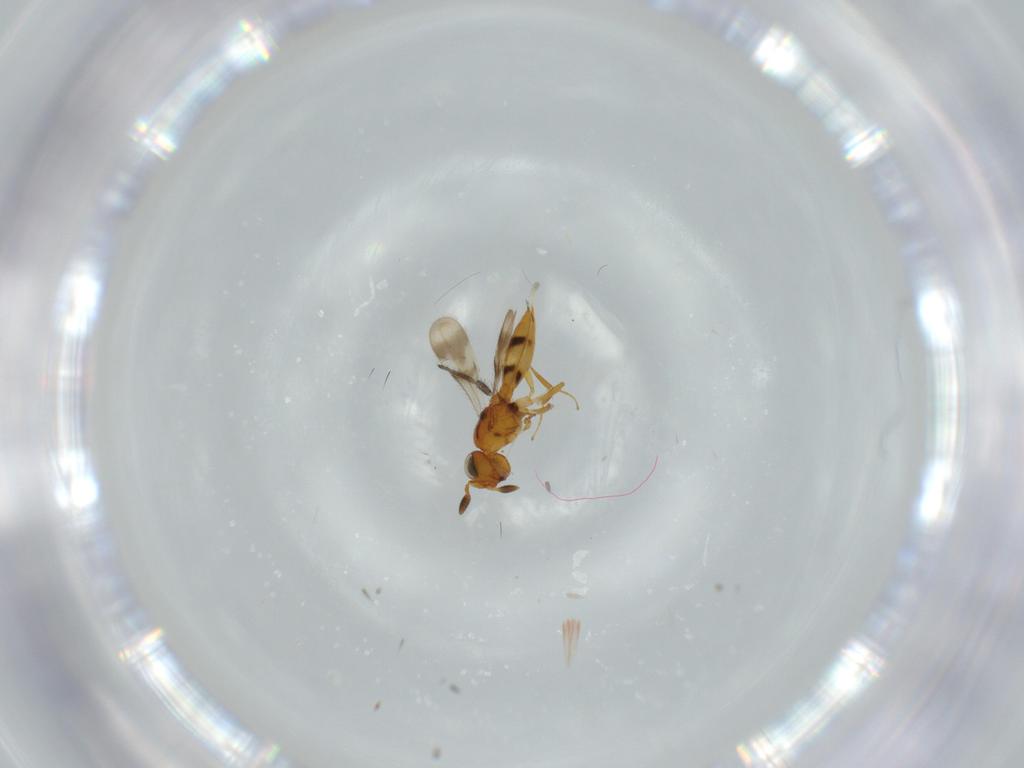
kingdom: Animalia
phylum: Arthropoda
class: Insecta
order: Hymenoptera
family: Scelionidae
